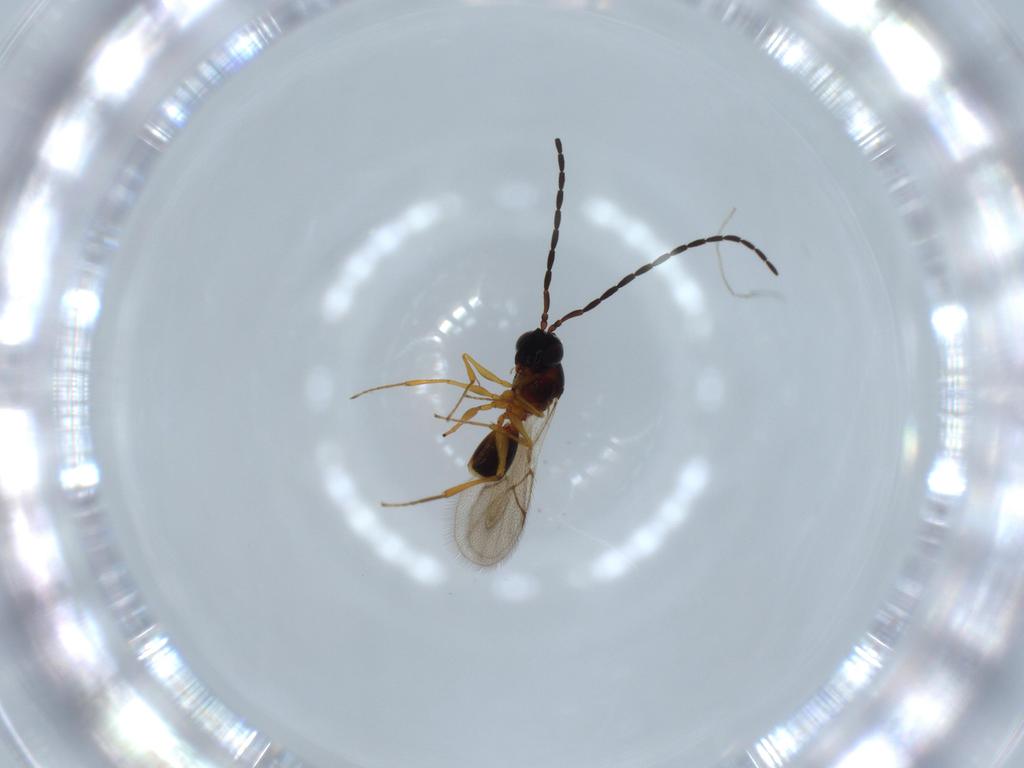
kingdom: Animalia
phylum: Arthropoda
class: Insecta
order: Hymenoptera
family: Figitidae
